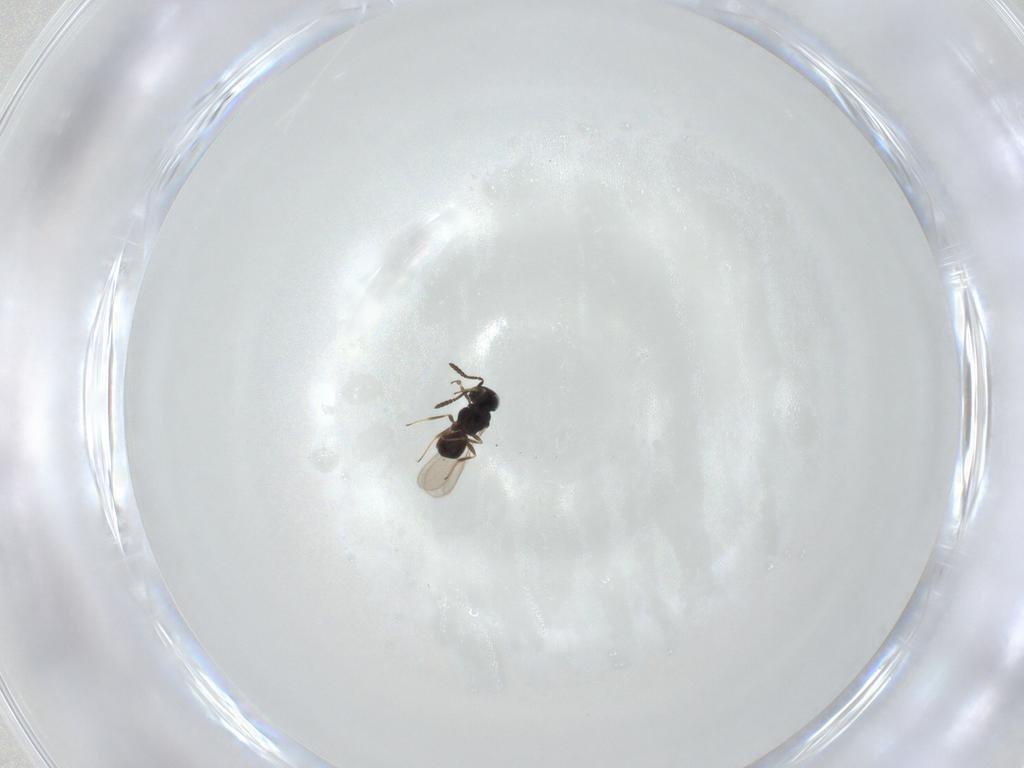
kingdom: Animalia
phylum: Arthropoda
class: Insecta
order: Hymenoptera
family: Scelionidae
